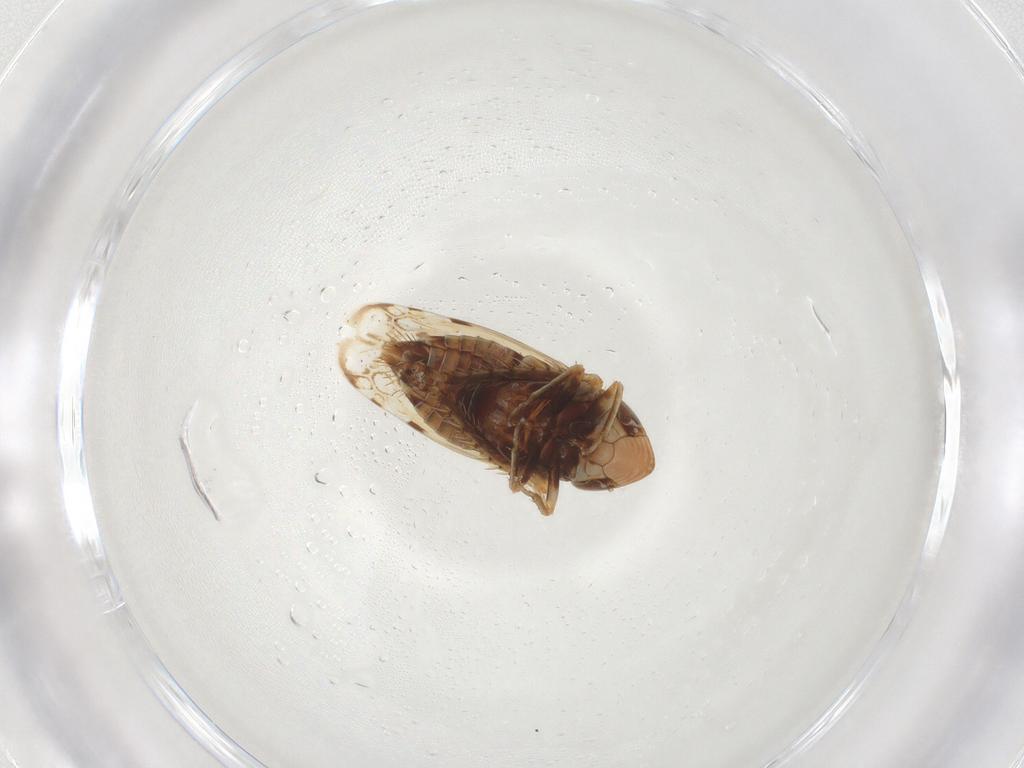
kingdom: Animalia
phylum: Arthropoda
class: Insecta
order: Hemiptera
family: Cicadellidae
